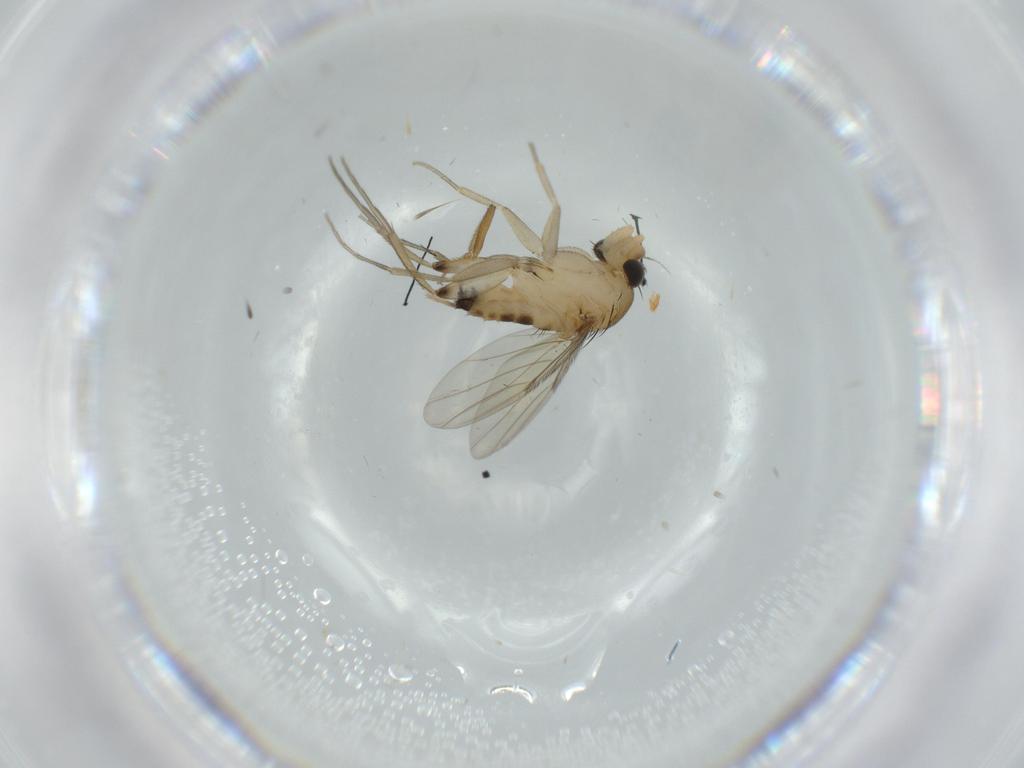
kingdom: Animalia
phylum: Arthropoda
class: Insecta
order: Diptera
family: Phoridae
